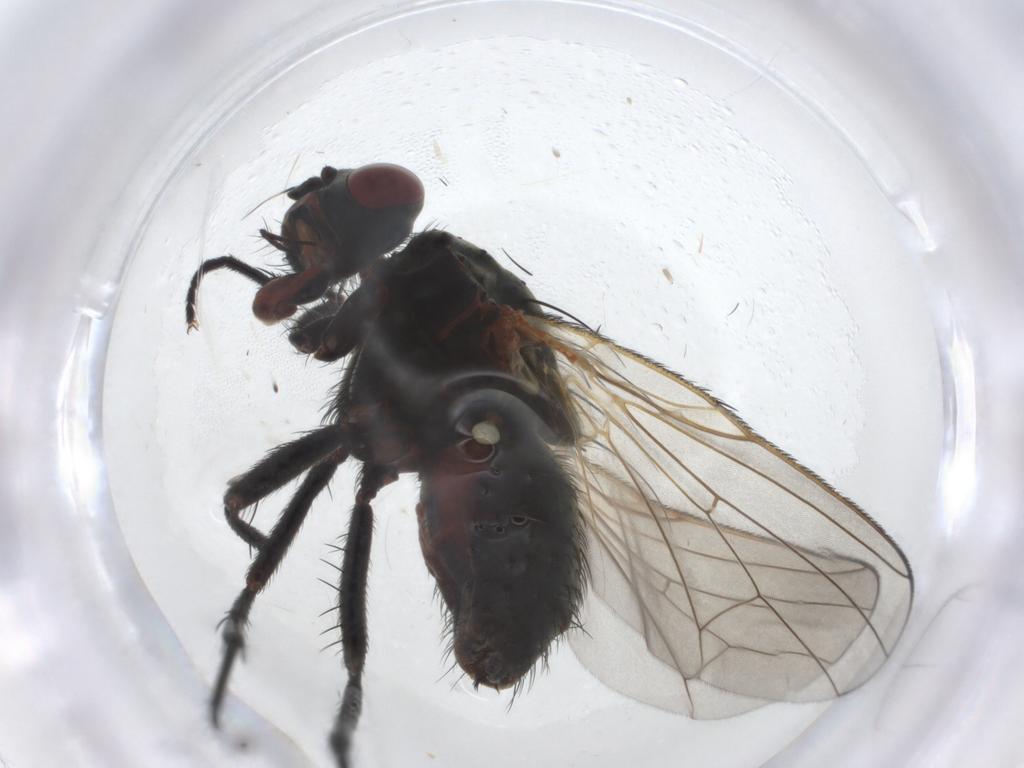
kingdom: Animalia
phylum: Arthropoda
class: Insecta
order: Diptera
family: Anthomyiidae
